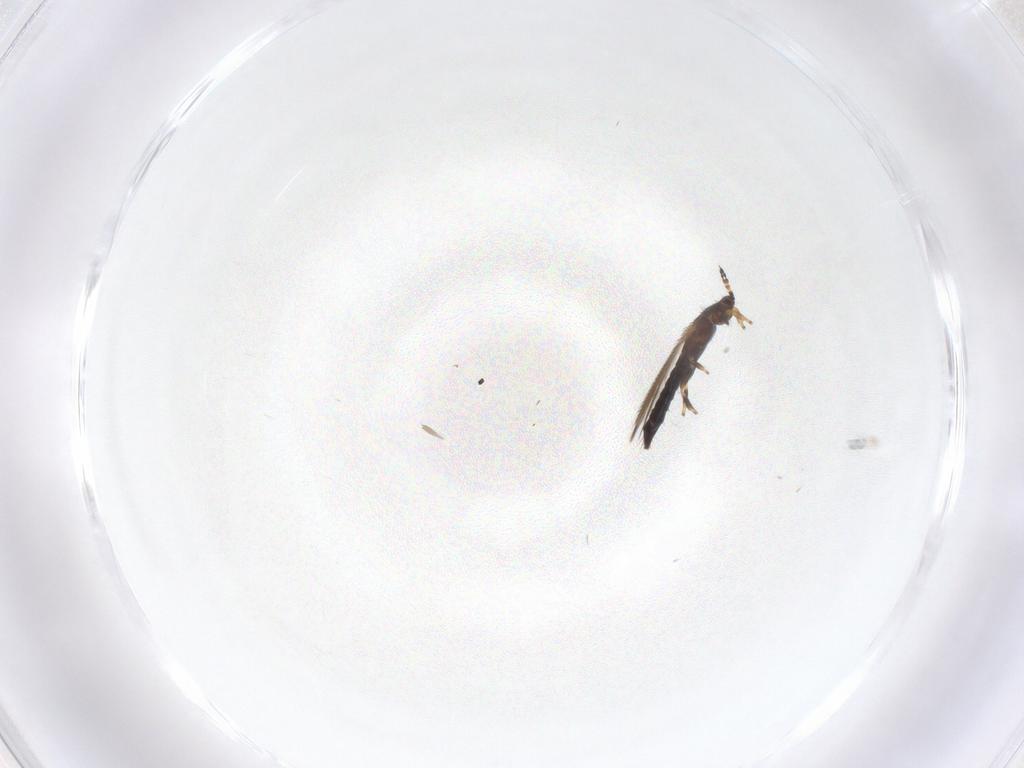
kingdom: Animalia
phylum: Arthropoda
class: Insecta
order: Thysanoptera
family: Thripidae
